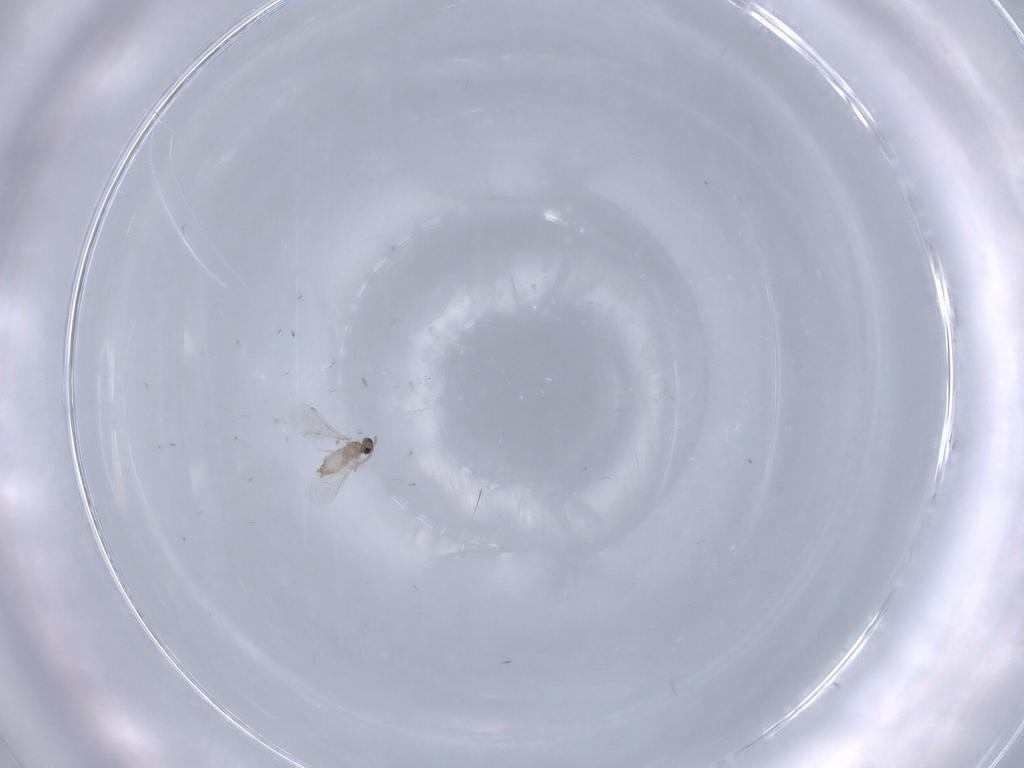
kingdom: Animalia
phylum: Arthropoda
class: Insecta
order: Diptera
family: Cecidomyiidae
